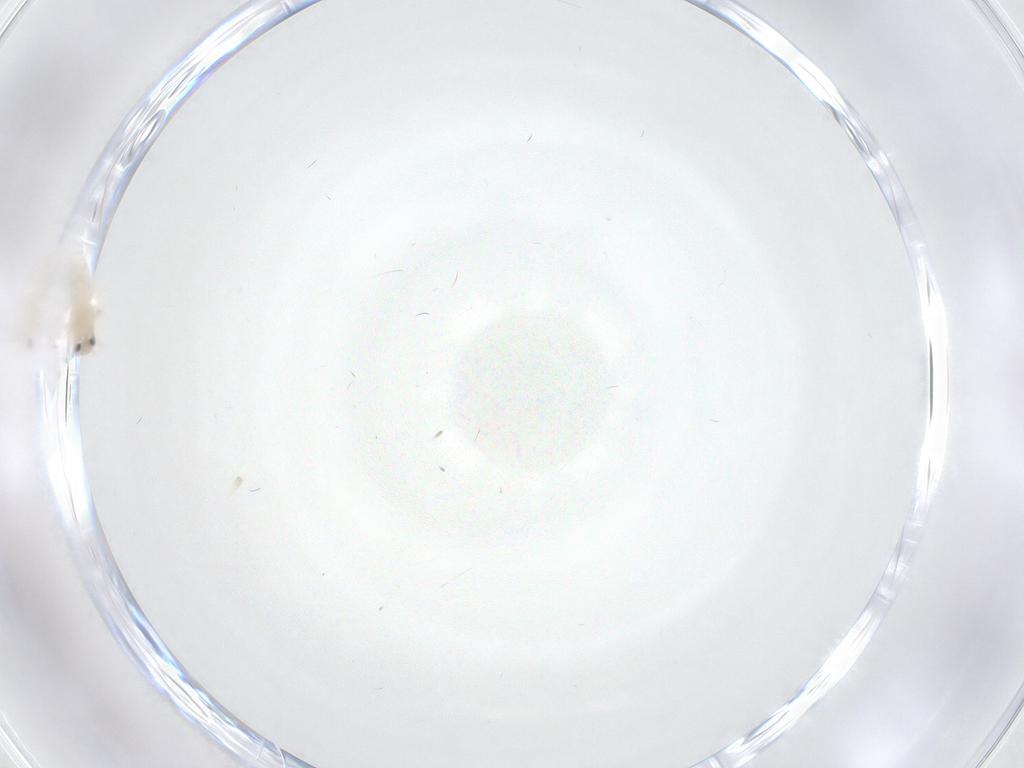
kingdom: Animalia
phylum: Arthropoda
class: Insecta
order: Hemiptera
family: Aleyrodidae
